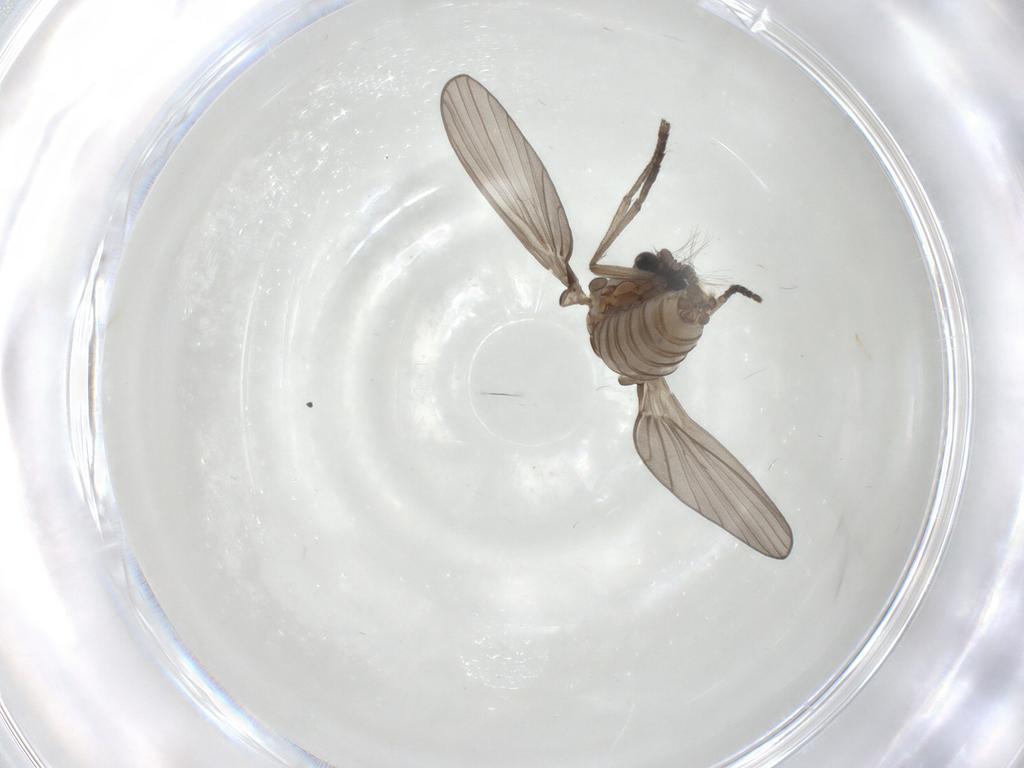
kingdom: Animalia
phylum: Arthropoda
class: Insecta
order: Diptera
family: Psychodidae
